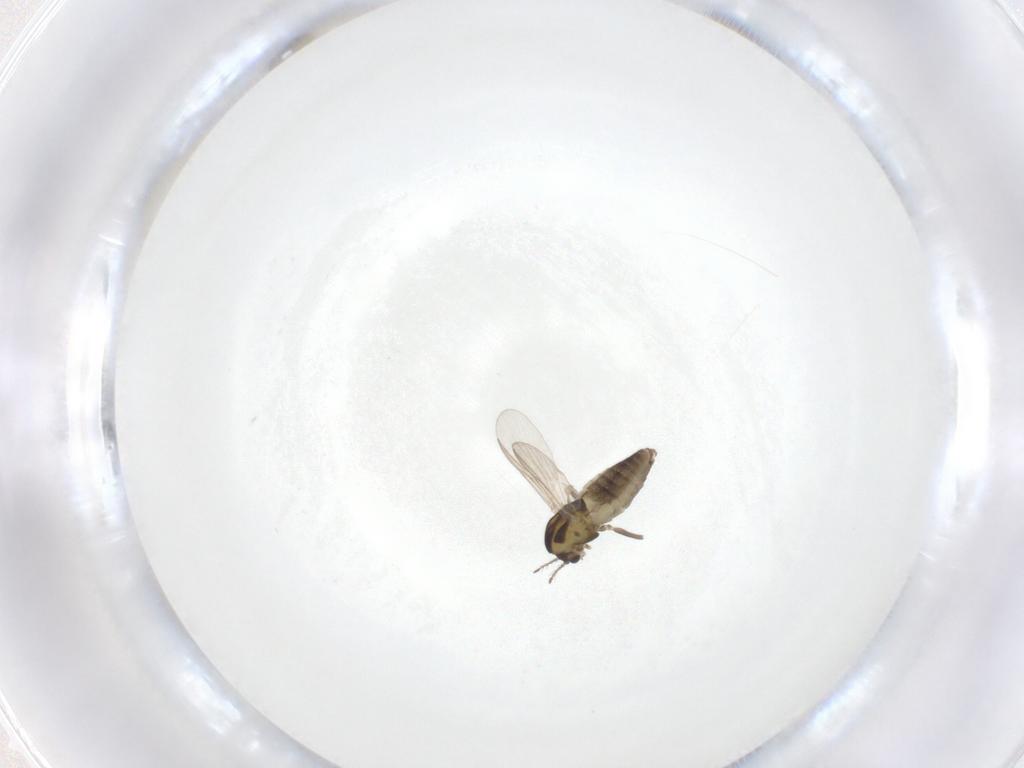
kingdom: Animalia
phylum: Arthropoda
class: Insecta
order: Diptera
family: Chironomidae
